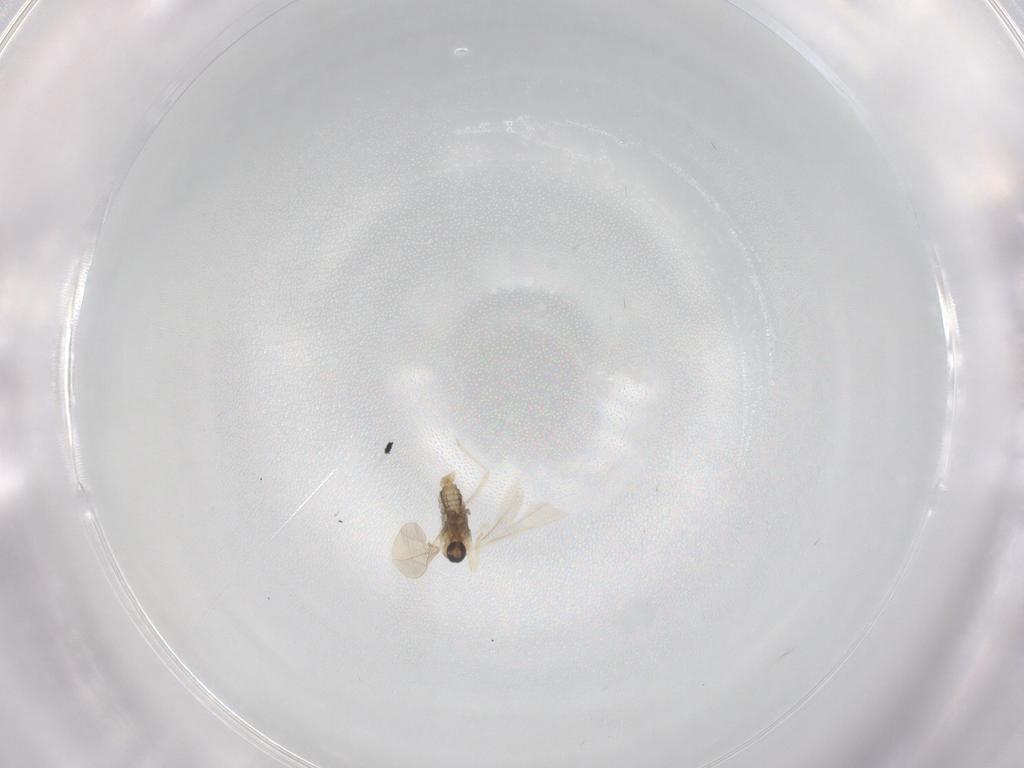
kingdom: Animalia
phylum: Arthropoda
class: Insecta
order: Diptera
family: Cecidomyiidae
